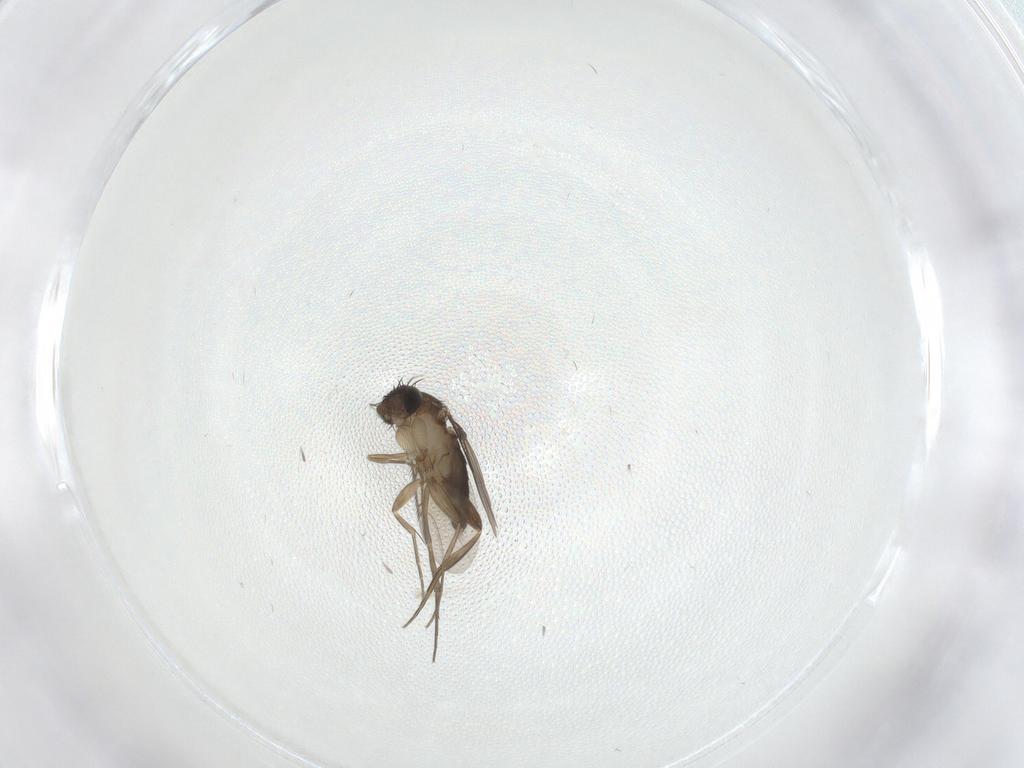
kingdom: Animalia
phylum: Arthropoda
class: Insecta
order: Diptera
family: Phoridae
